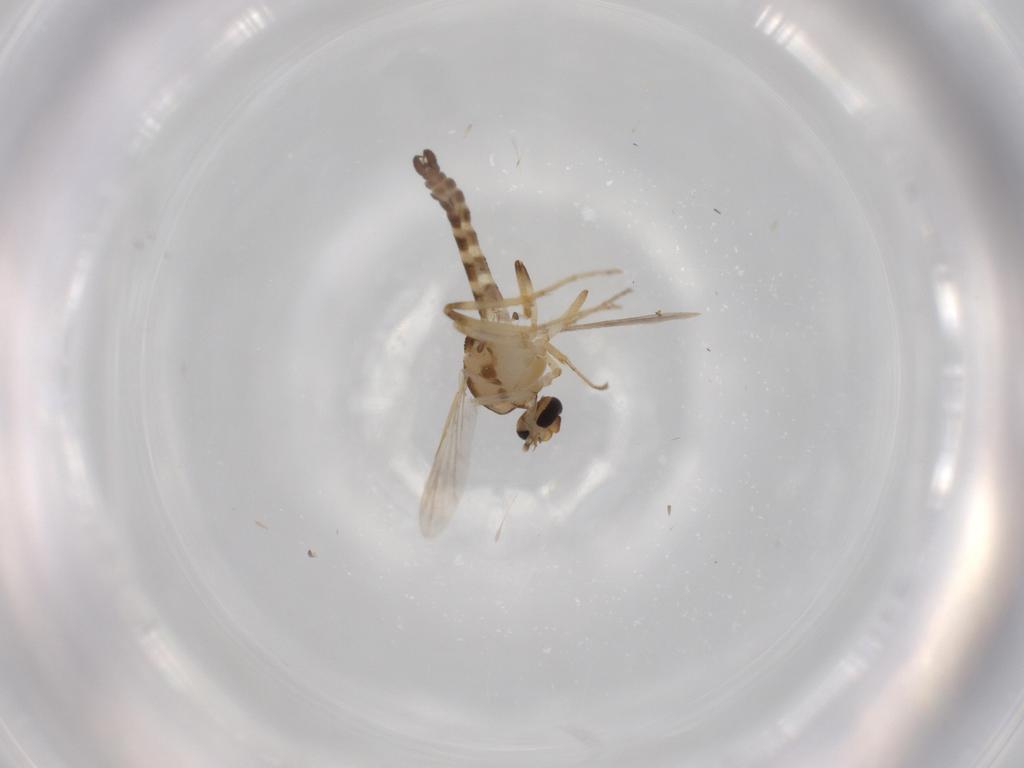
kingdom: Animalia
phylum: Arthropoda
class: Insecta
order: Diptera
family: Ceratopogonidae
